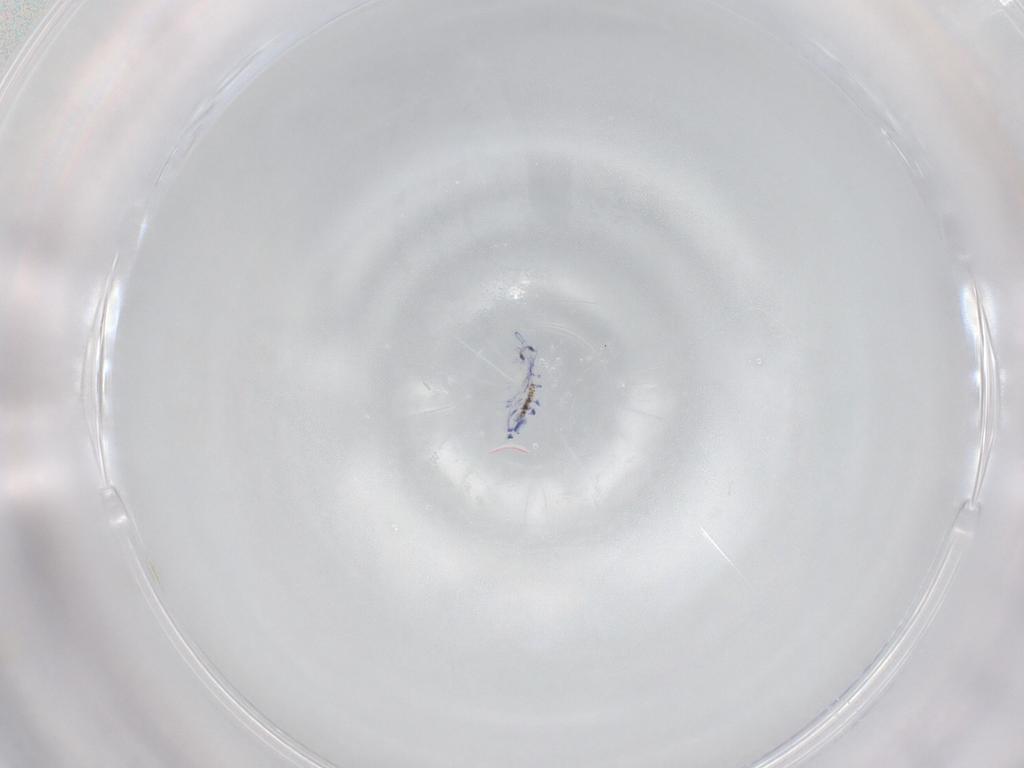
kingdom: Animalia
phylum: Arthropoda
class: Collembola
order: Entomobryomorpha
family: Entomobryidae
